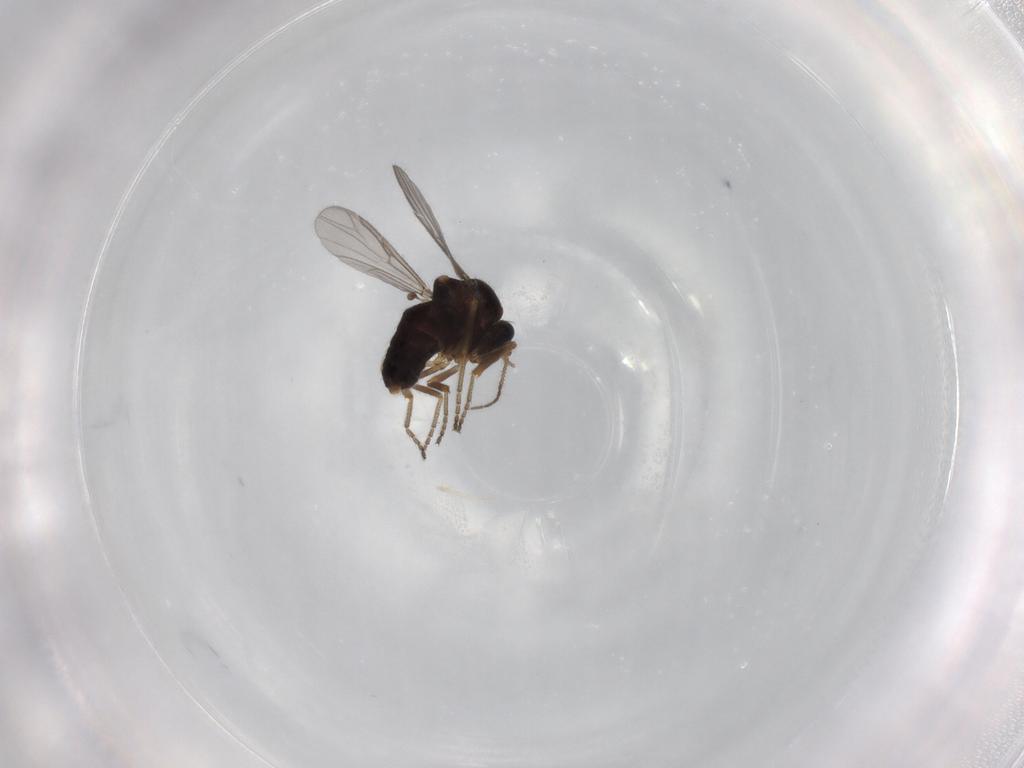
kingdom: Animalia
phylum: Arthropoda
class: Insecta
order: Diptera
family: Ceratopogonidae
